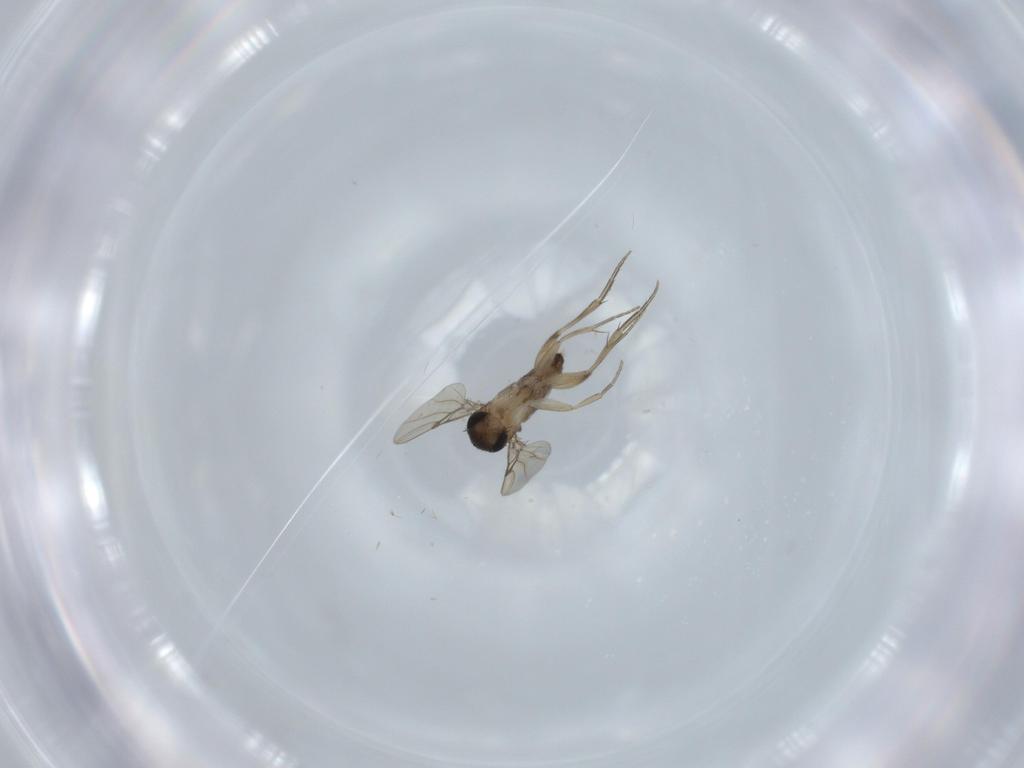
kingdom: Animalia
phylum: Arthropoda
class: Insecta
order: Diptera
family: Phoridae
